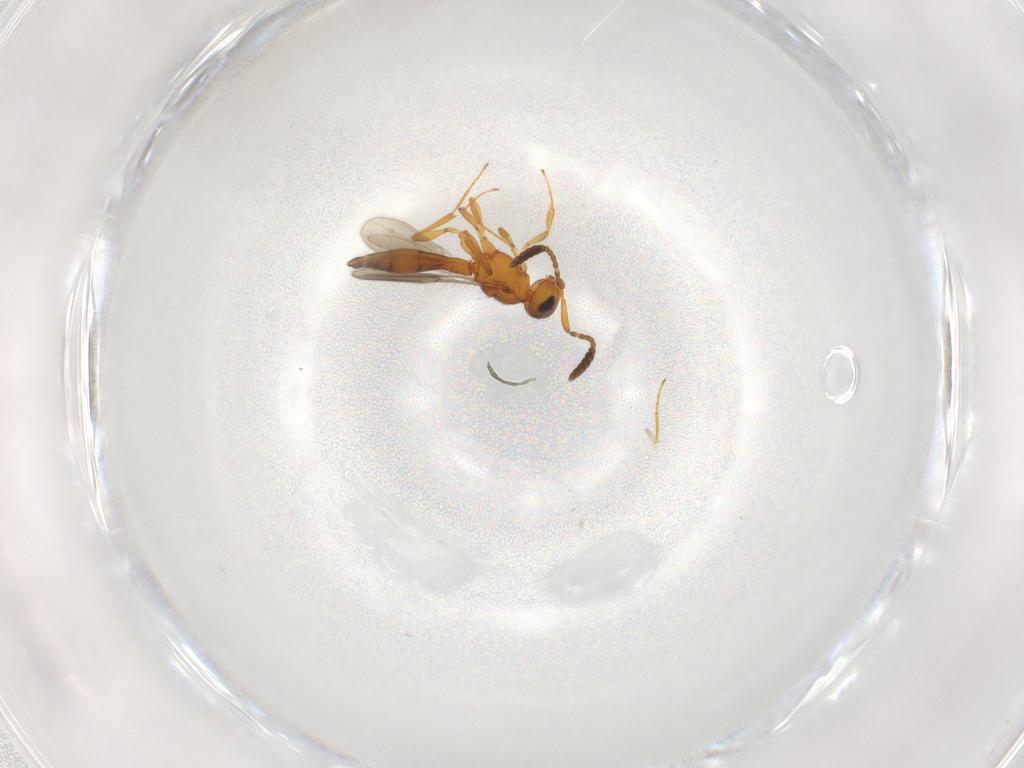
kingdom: Animalia
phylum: Arthropoda
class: Insecta
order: Hymenoptera
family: Scelionidae
